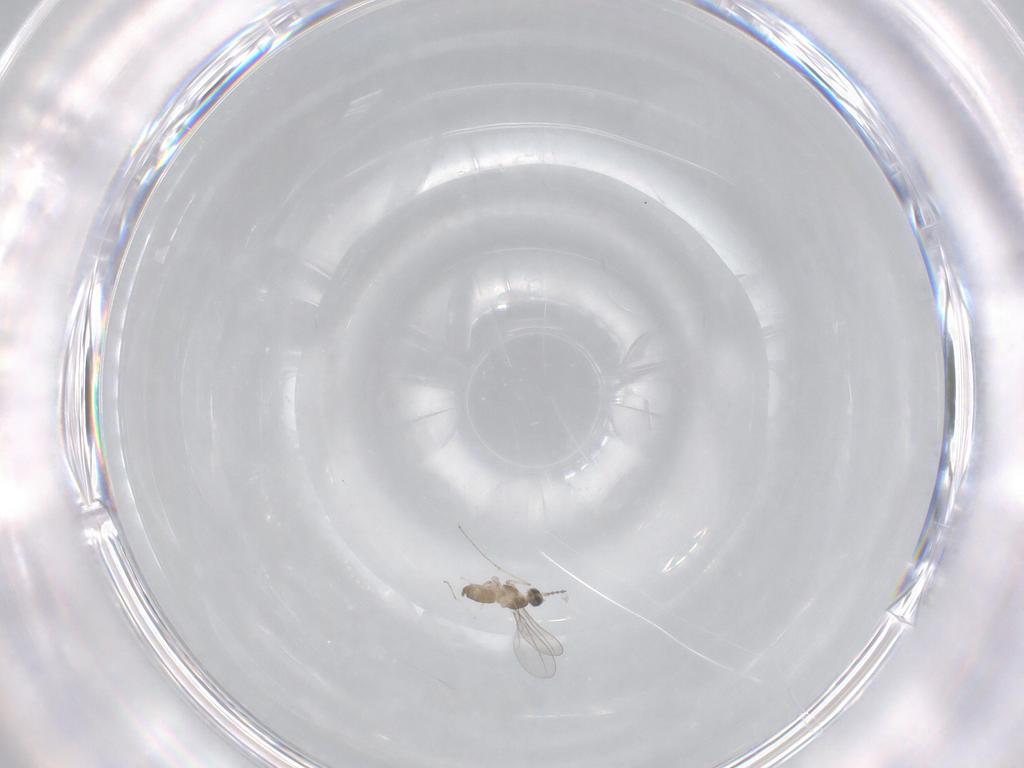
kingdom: Animalia
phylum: Arthropoda
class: Insecta
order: Diptera
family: Cecidomyiidae
